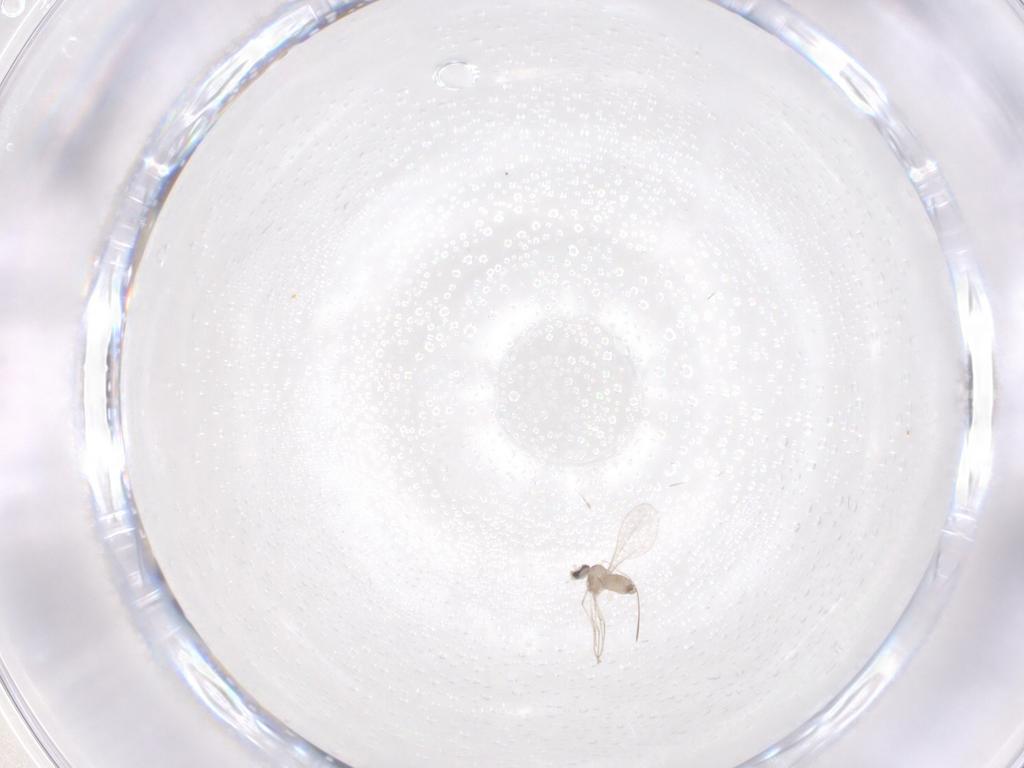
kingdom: Animalia
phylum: Arthropoda
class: Insecta
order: Diptera
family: Cecidomyiidae
